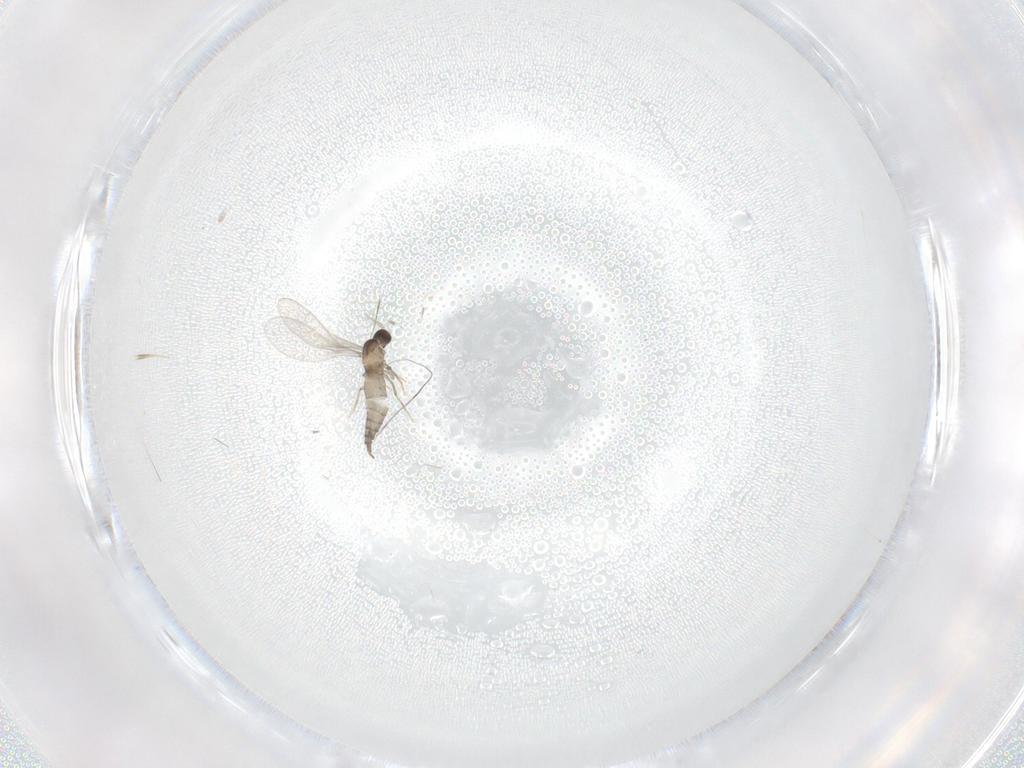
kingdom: Animalia
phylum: Arthropoda
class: Insecta
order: Diptera
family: Cecidomyiidae
